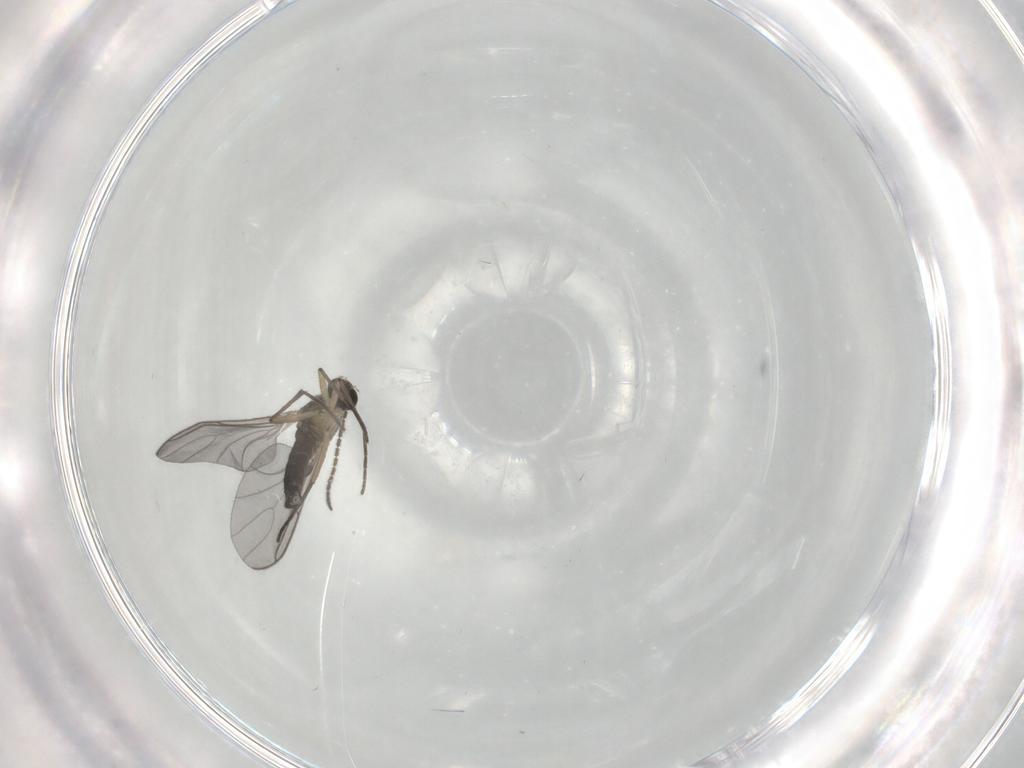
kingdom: Animalia
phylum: Arthropoda
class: Insecta
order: Diptera
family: Sciaridae
